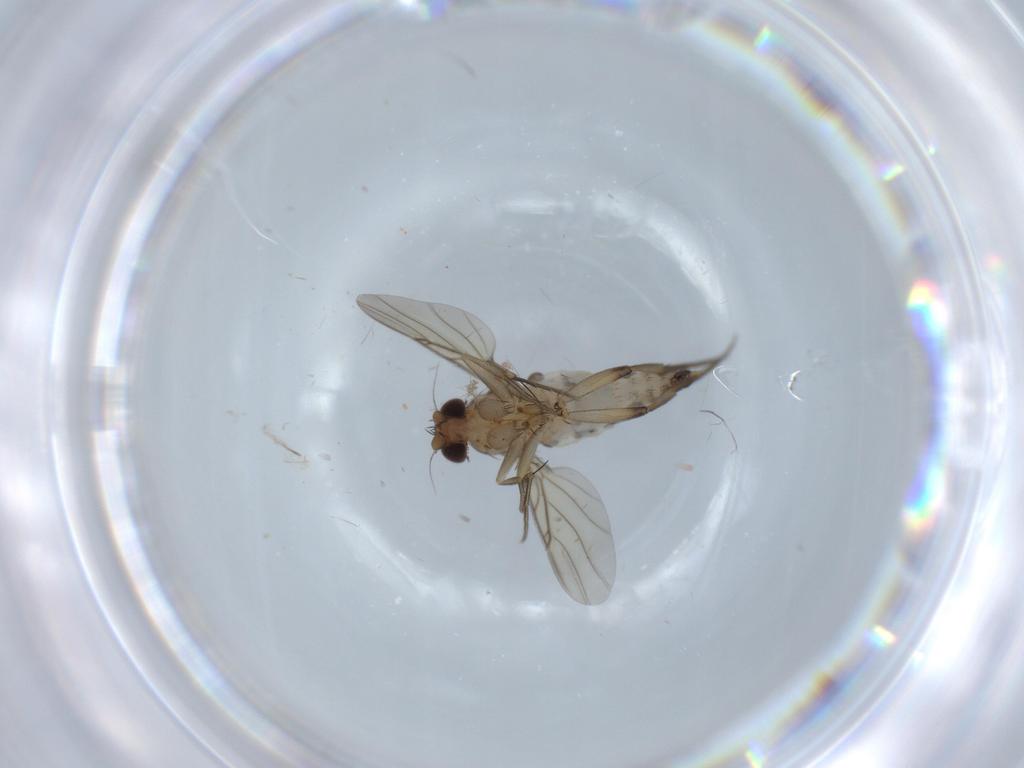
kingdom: Animalia
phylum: Arthropoda
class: Insecta
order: Diptera
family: Phoridae
